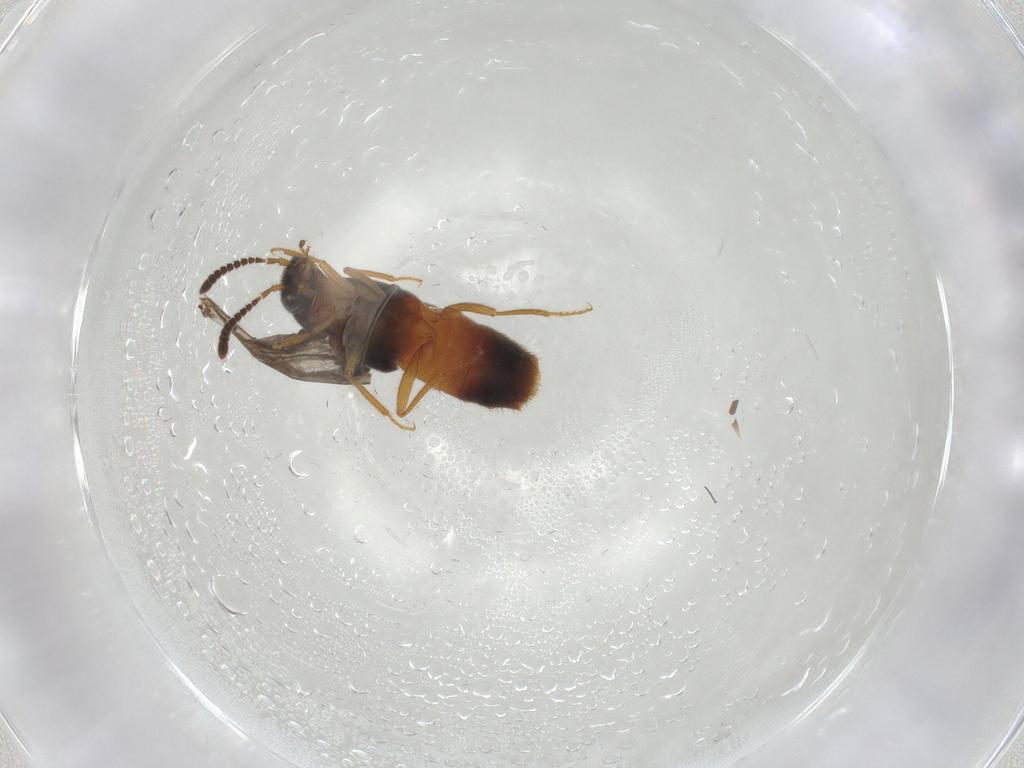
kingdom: Animalia
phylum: Arthropoda
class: Insecta
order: Coleoptera
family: Staphylinidae
